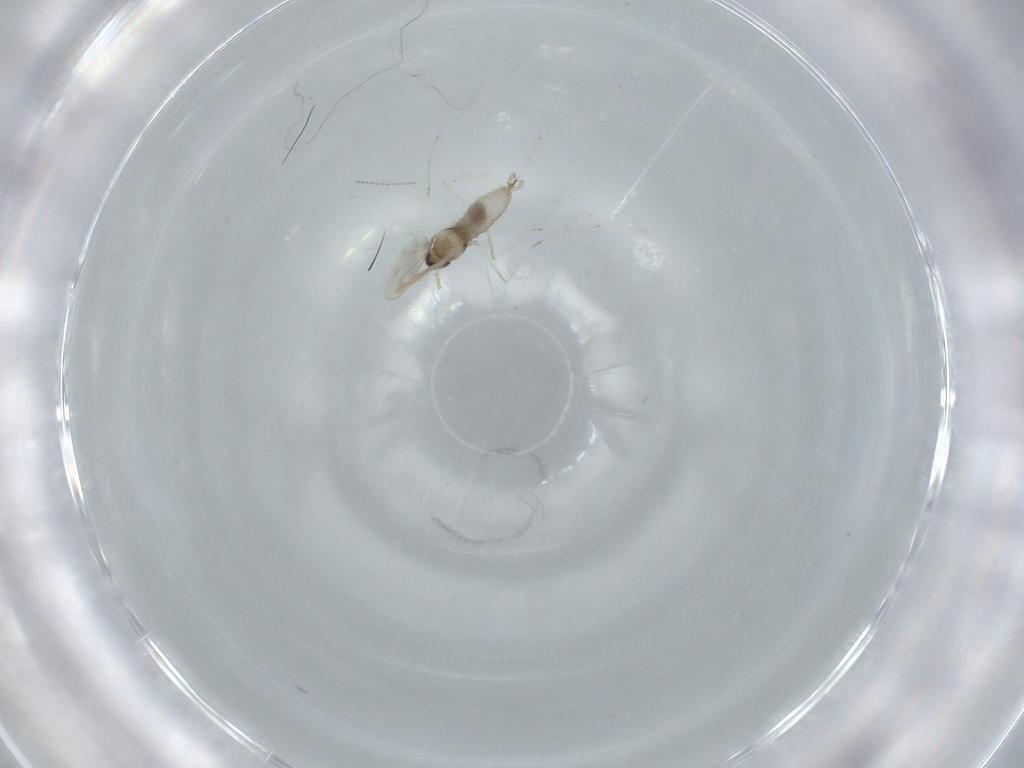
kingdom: Animalia
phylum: Arthropoda
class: Insecta
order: Diptera
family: Cecidomyiidae
